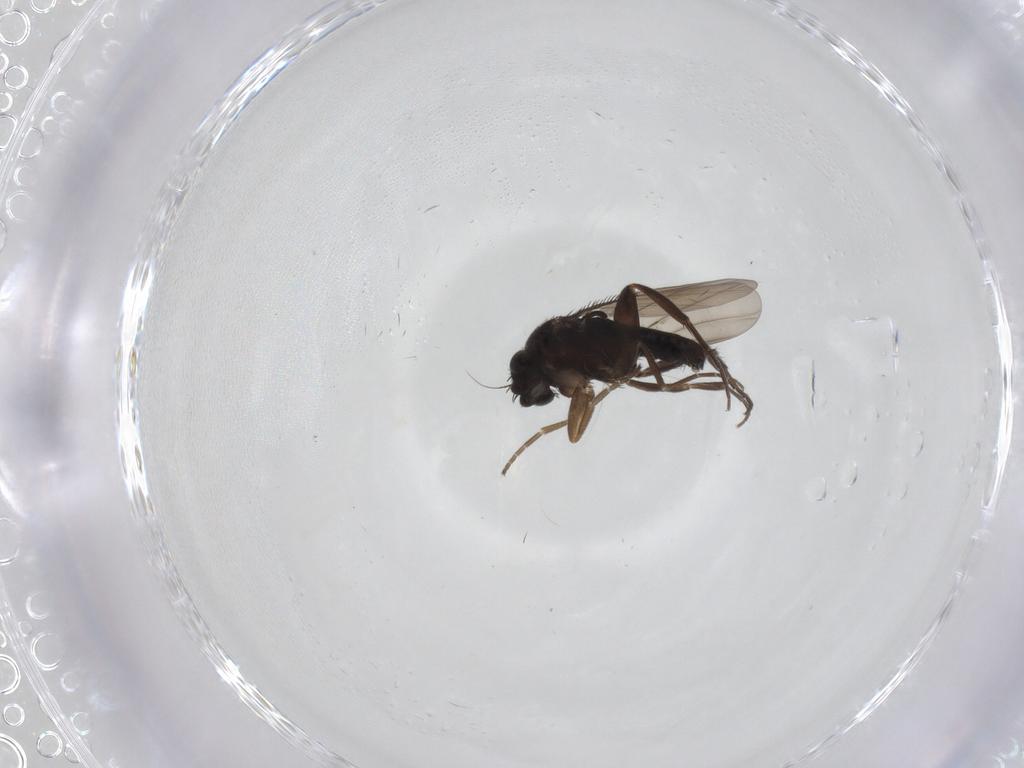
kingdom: Animalia
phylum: Arthropoda
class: Insecta
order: Diptera
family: Phoridae
